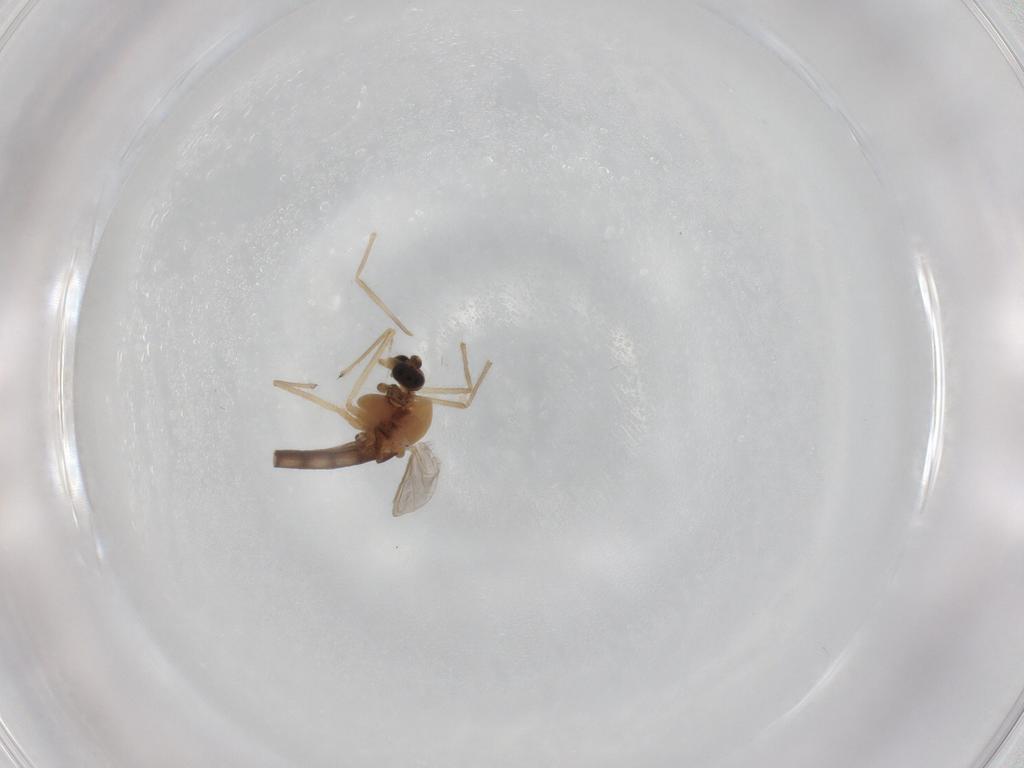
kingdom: Animalia
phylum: Arthropoda
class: Insecta
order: Diptera
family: Chironomidae
